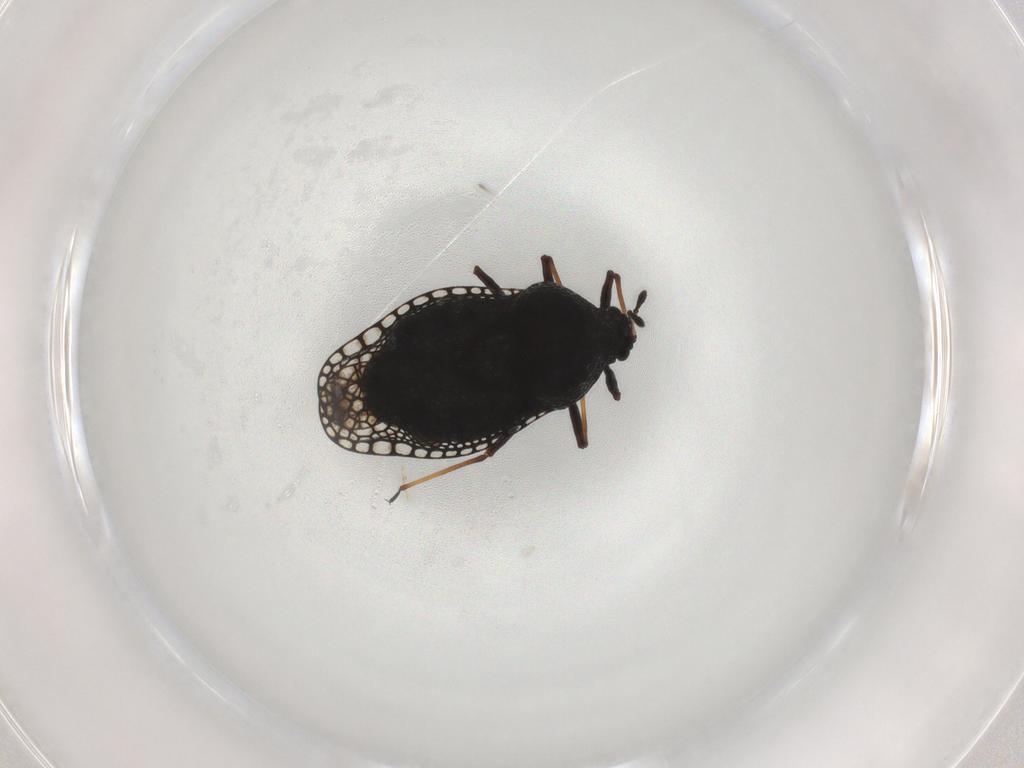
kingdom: Animalia
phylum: Arthropoda
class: Insecta
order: Hemiptera
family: Tingidae
